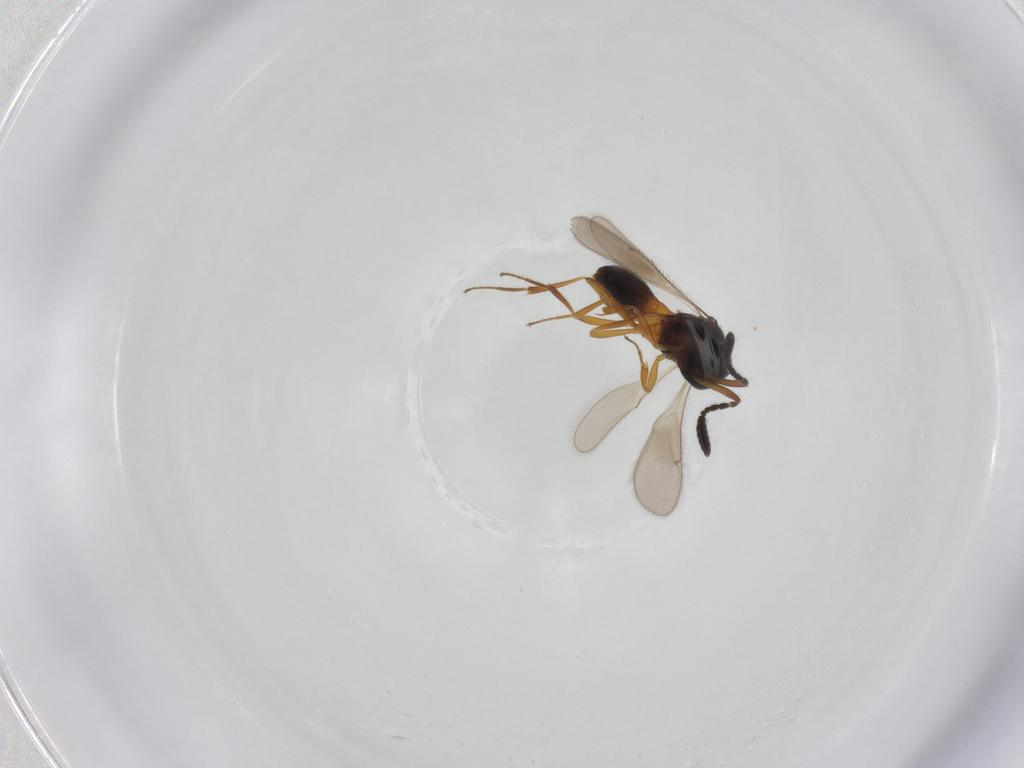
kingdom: Animalia
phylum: Arthropoda
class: Insecta
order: Hymenoptera
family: Scelionidae
